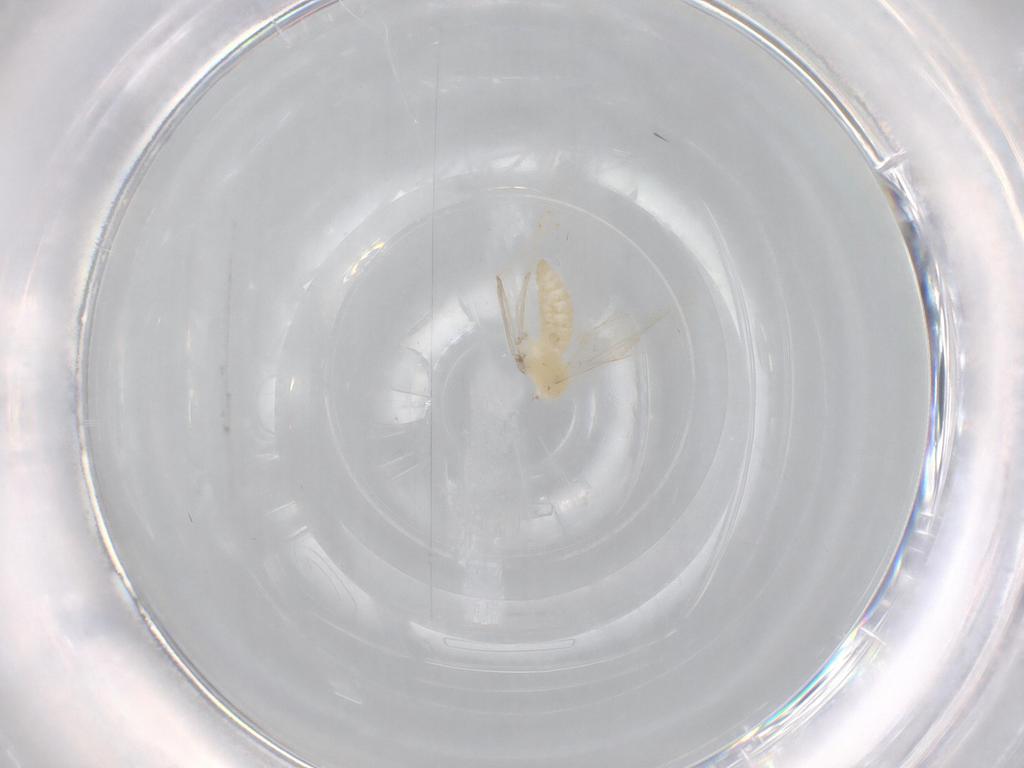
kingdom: Animalia
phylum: Arthropoda
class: Insecta
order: Diptera
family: Cecidomyiidae
